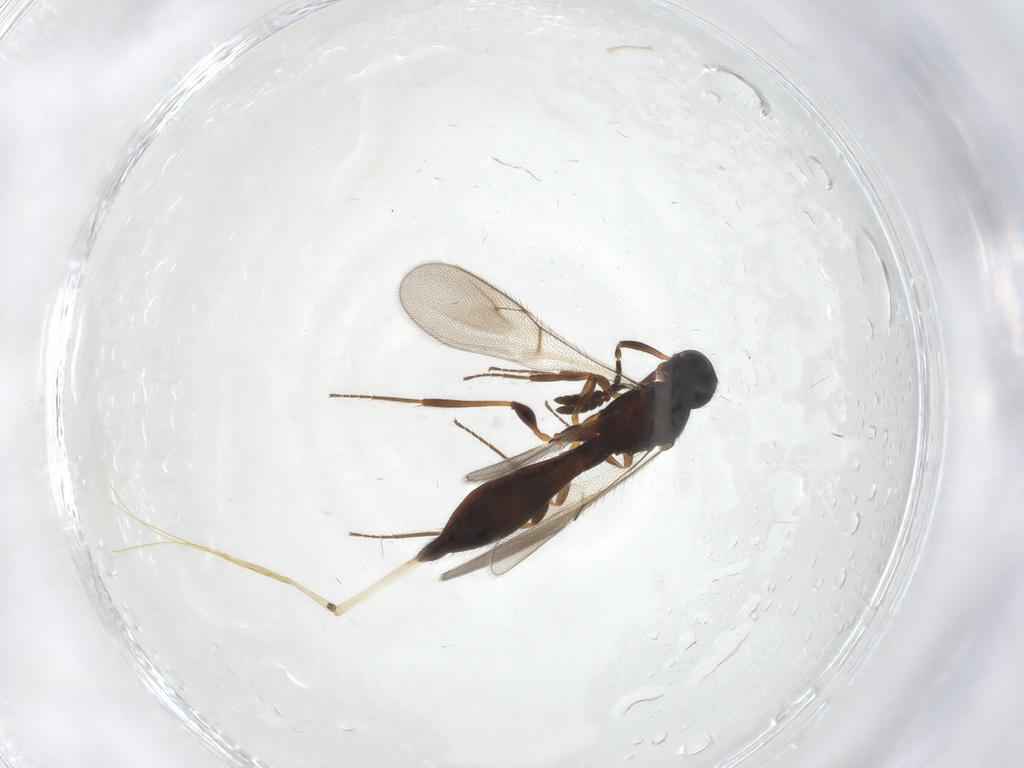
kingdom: Animalia
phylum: Arthropoda
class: Insecta
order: Hymenoptera
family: Scelionidae
